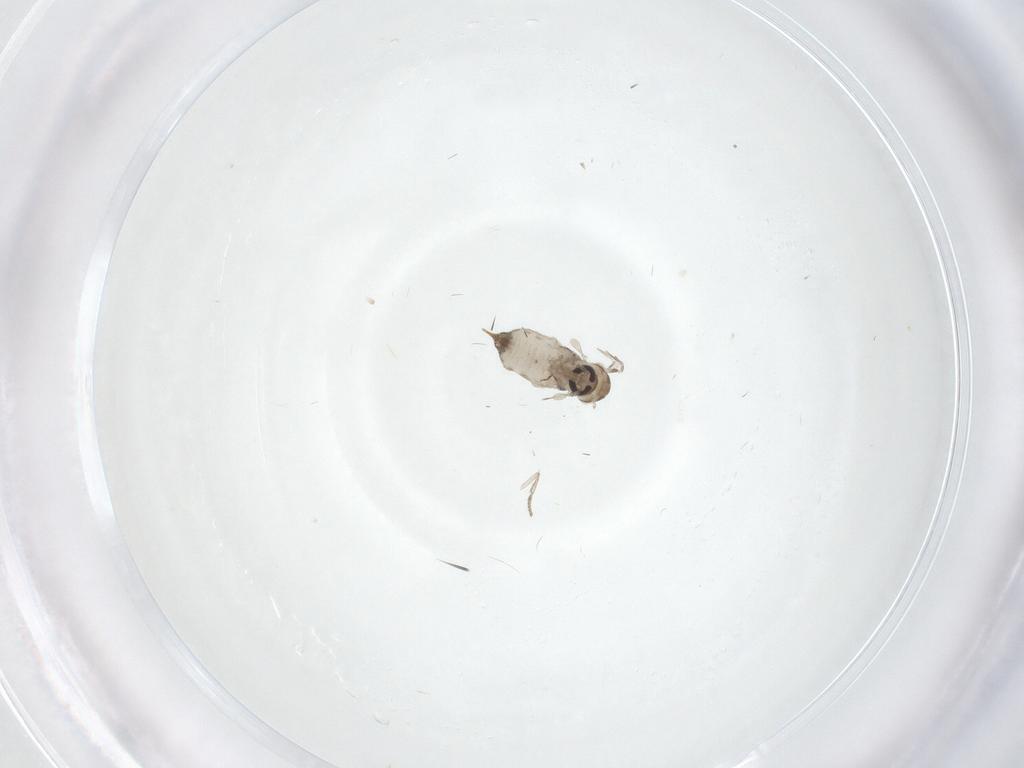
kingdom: Animalia
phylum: Arthropoda
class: Insecta
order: Diptera
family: Psychodidae
